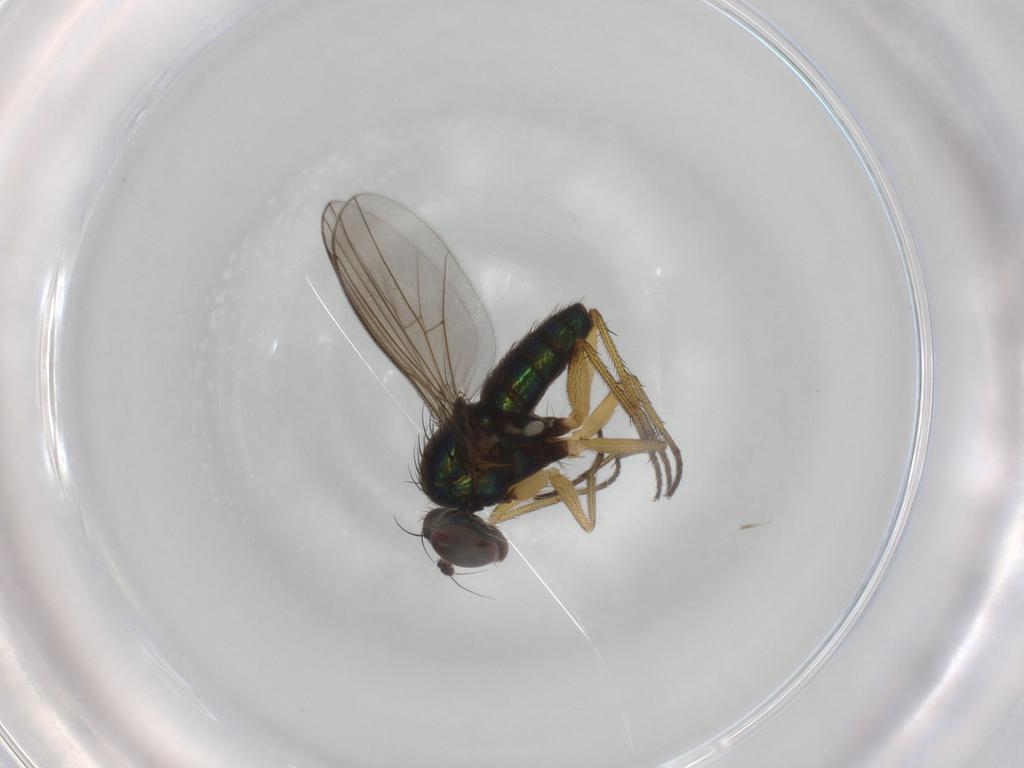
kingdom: Animalia
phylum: Arthropoda
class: Insecta
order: Diptera
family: Dolichopodidae
